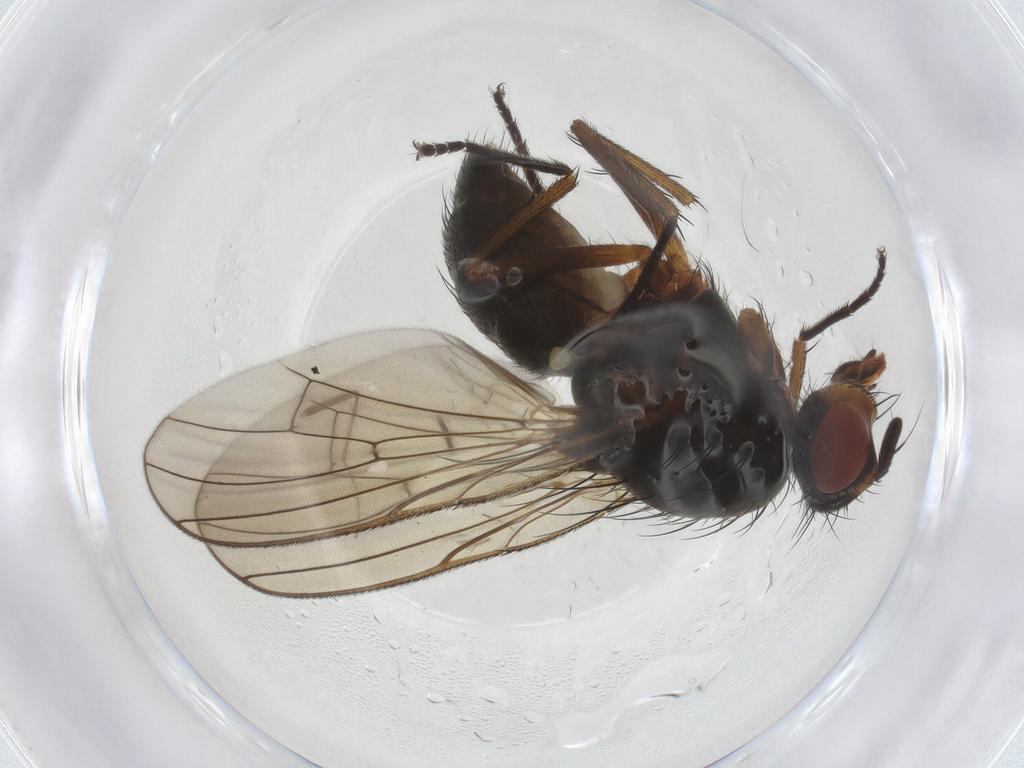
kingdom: Animalia
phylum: Arthropoda
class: Insecta
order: Diptera
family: Anthomyiidae
